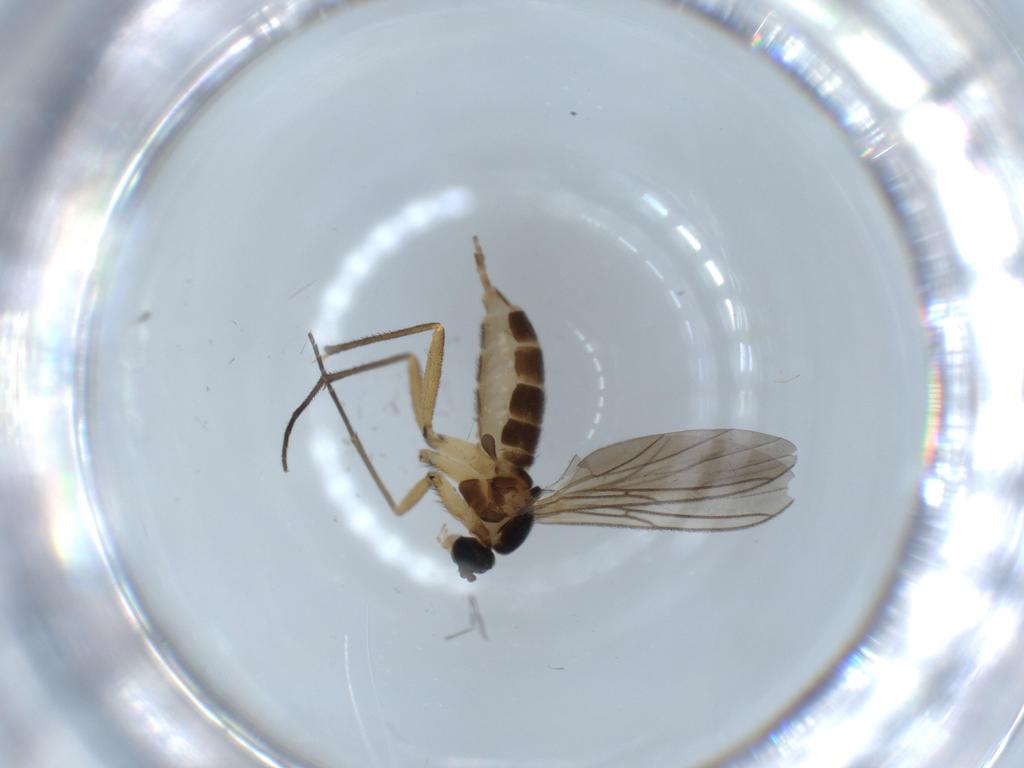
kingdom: Animalia
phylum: Arthropoda
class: Insecta
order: Diptera
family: Sciaridae
